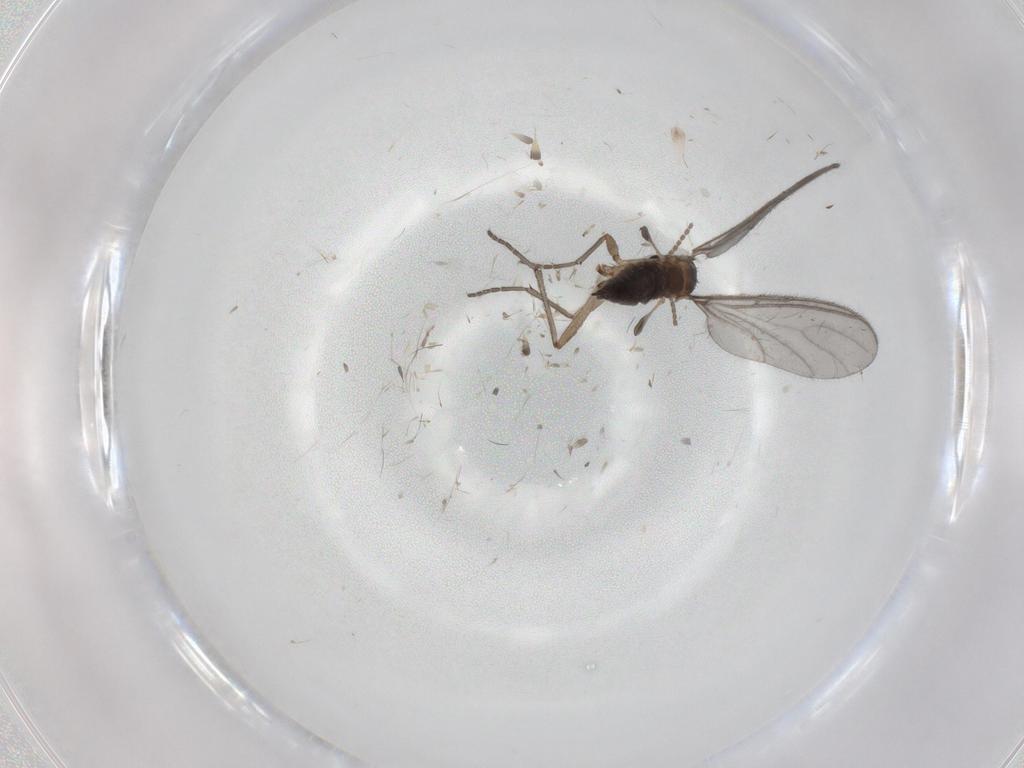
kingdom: Animalia
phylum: Arthropoda
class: Insecta
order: Diptera
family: Sciaridae
